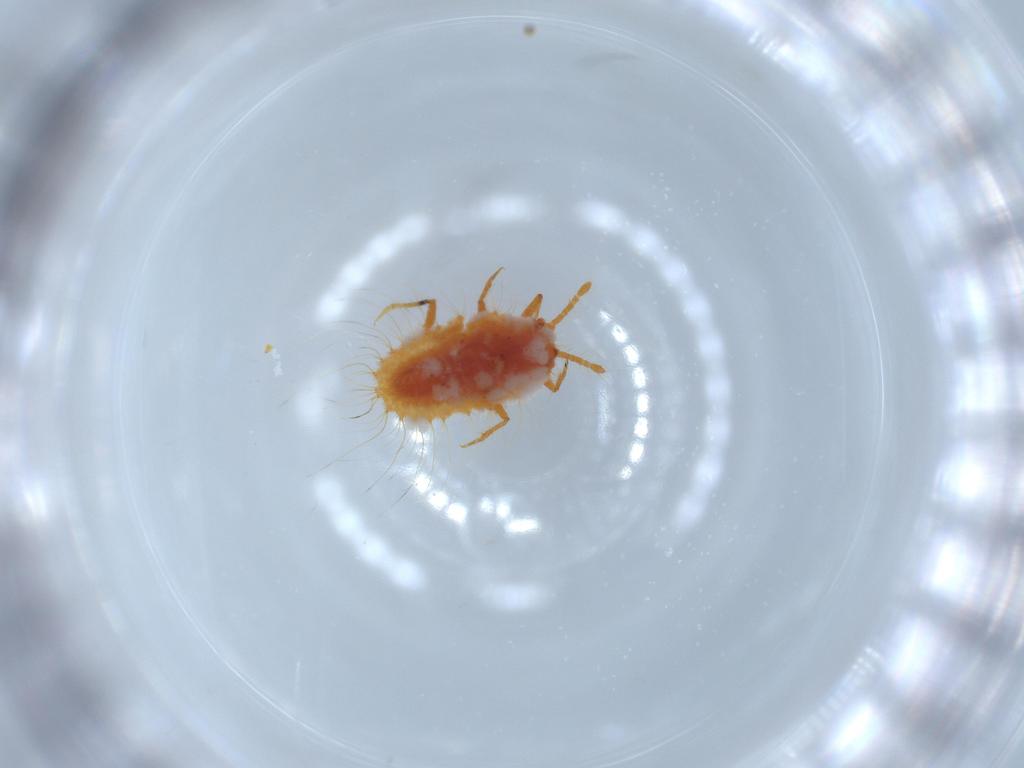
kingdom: Animalia
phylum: Arthropoda
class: Insecta
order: Hemiptera
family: Coccoidea_incertae_sedis
